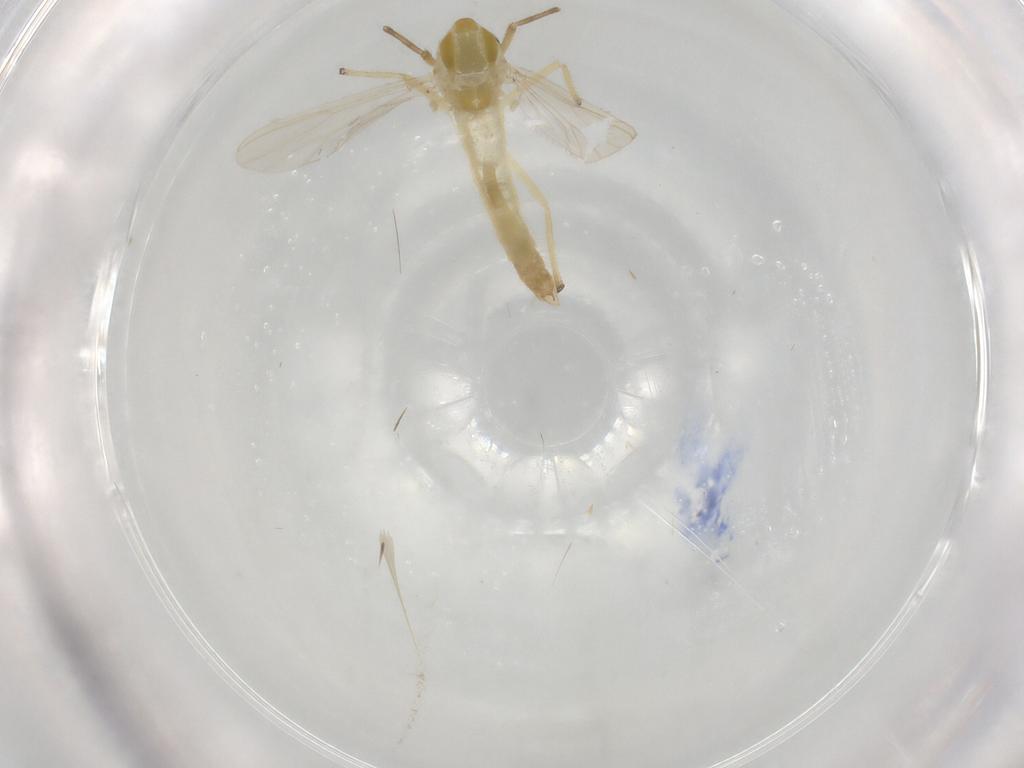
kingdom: Animalia
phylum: Arthropoda
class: Insecta
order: Diptera
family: Chironomidae
